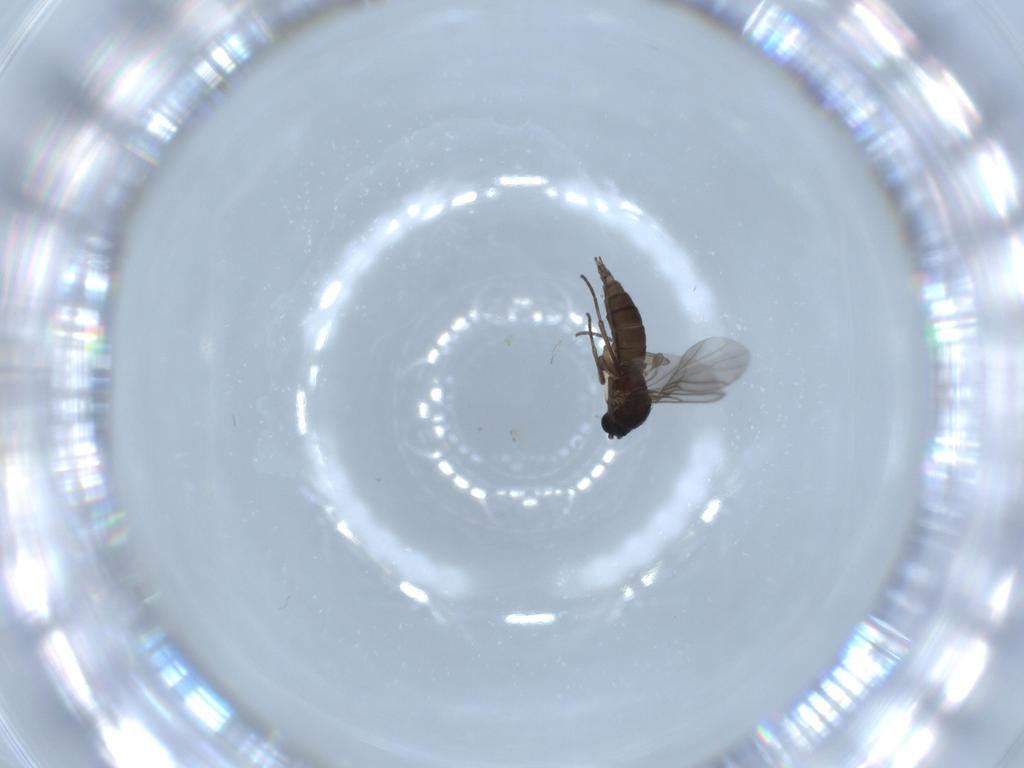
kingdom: Animalia
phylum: Arthropoda
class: Insecta
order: Diptera
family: Sciaridae
